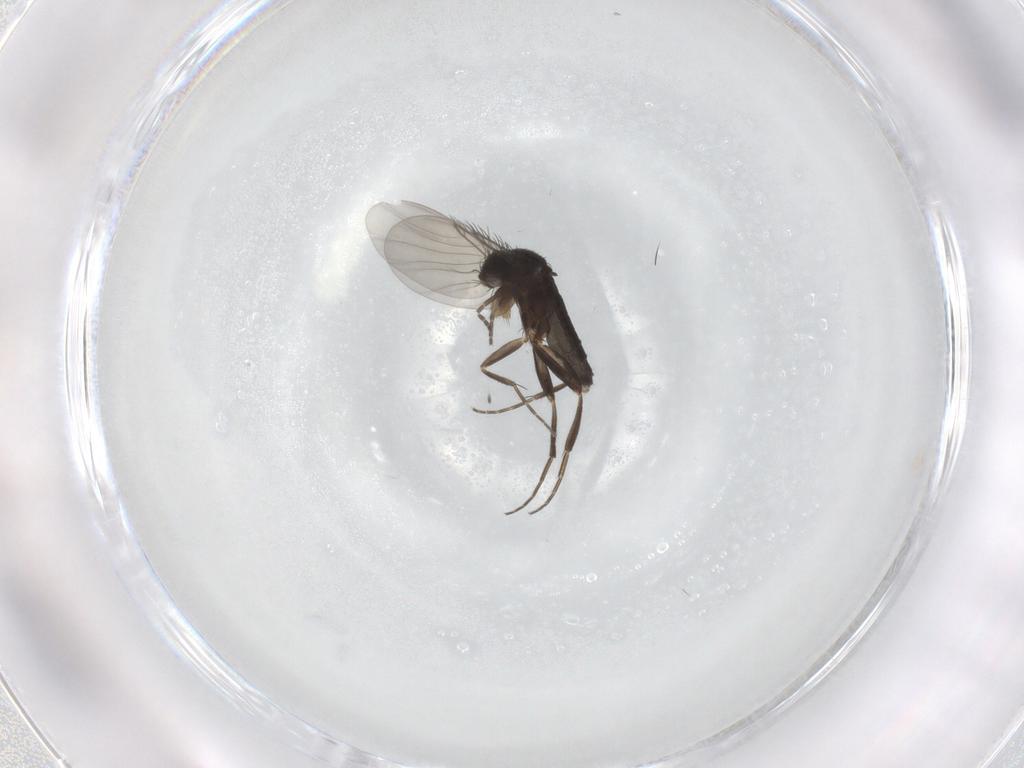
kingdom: Animalia
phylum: Arthropoda
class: Insecta
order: Diptera
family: Phoridae
